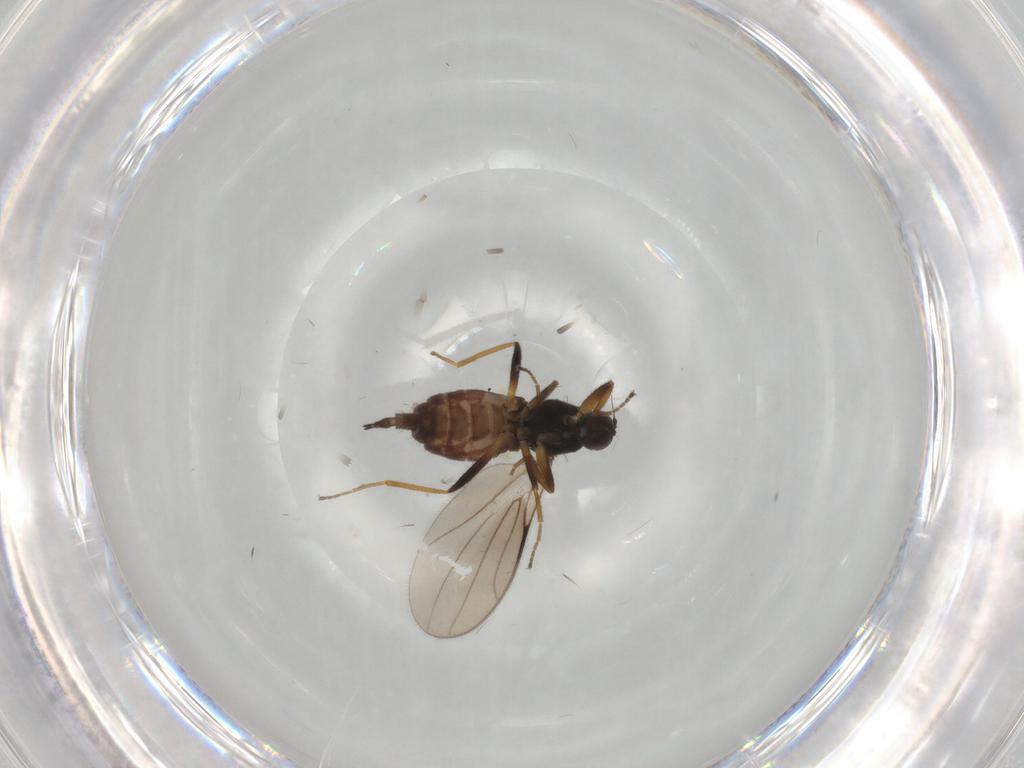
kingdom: Animalia
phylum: Arthropoda
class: Insecta
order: Diptera
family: Hybotidae
